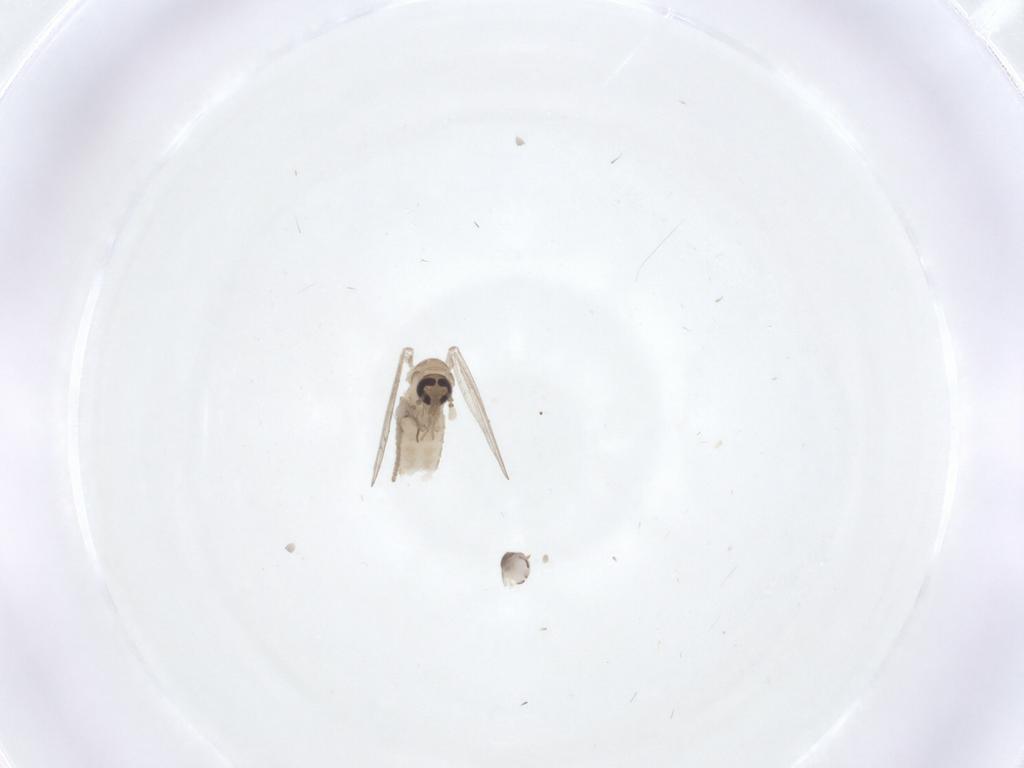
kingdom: Animalia
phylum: Arthropoda
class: Insecta
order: Diptera
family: Psychodidae
